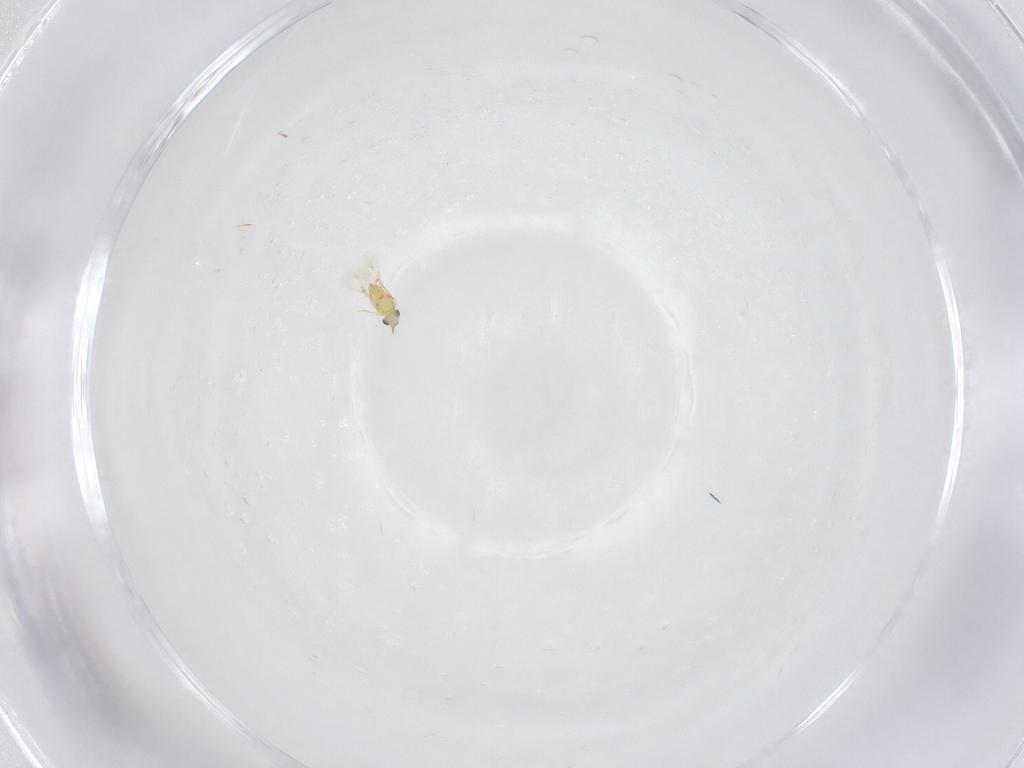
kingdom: Animalia
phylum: Arthropoda
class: Insecta
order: Hymenoptera
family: Trichogrammatidae
